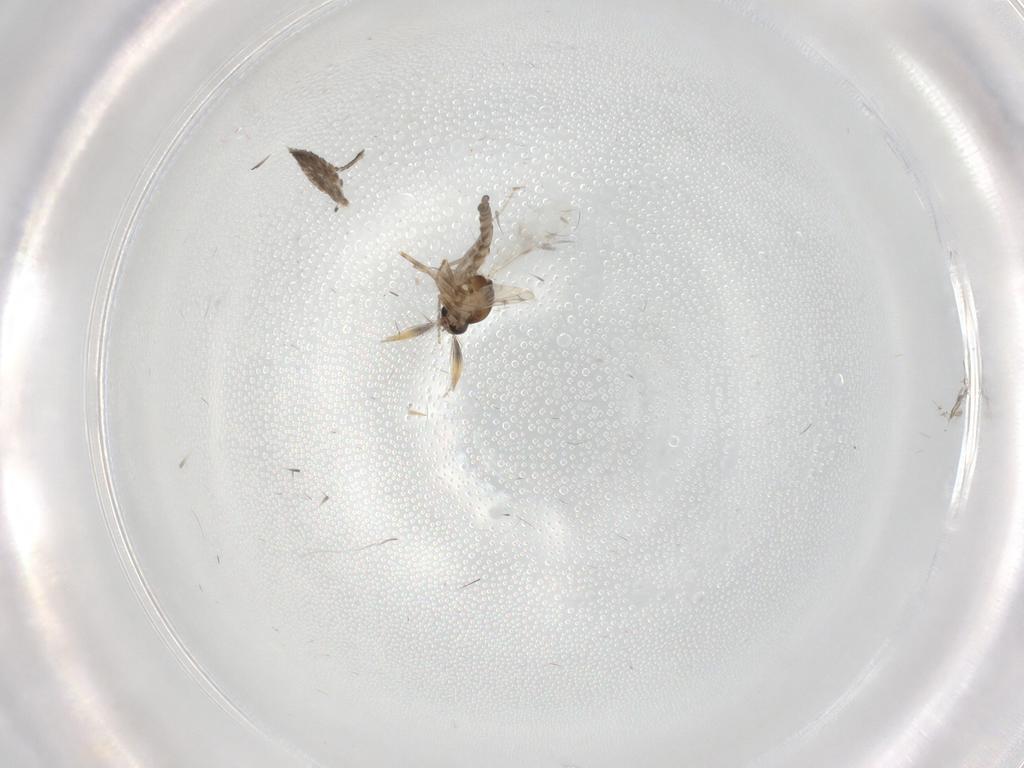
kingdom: Animalia
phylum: Arthropoda
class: Insecta
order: Diptera
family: Ceratopogonidae
